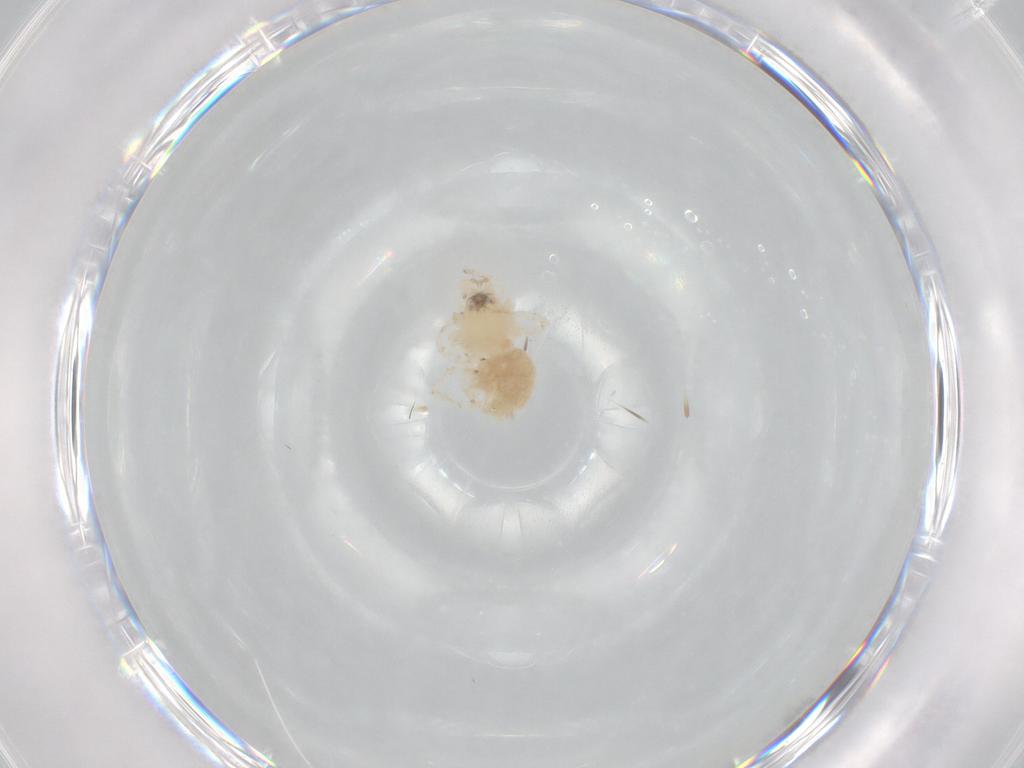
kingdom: Animalia
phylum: Arthropoda
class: Arachnida
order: Araneae
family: Anyphaenidae
